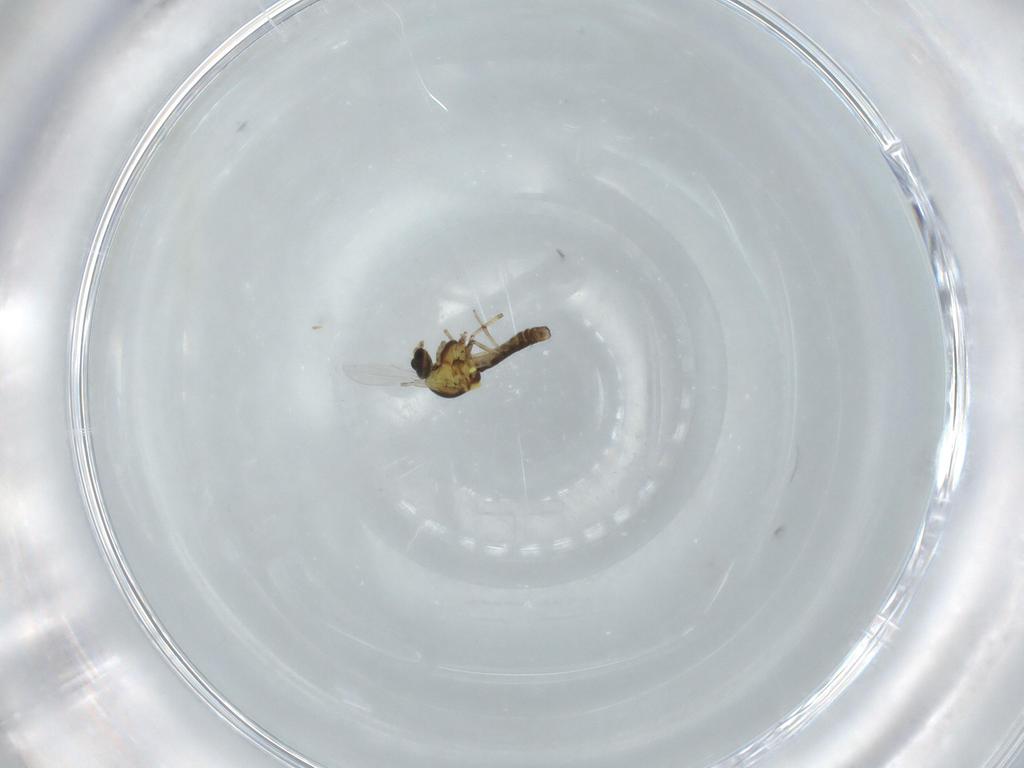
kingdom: Animalia
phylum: Arthropoda
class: Insecta
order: Diptera
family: Ceratopogonidae
